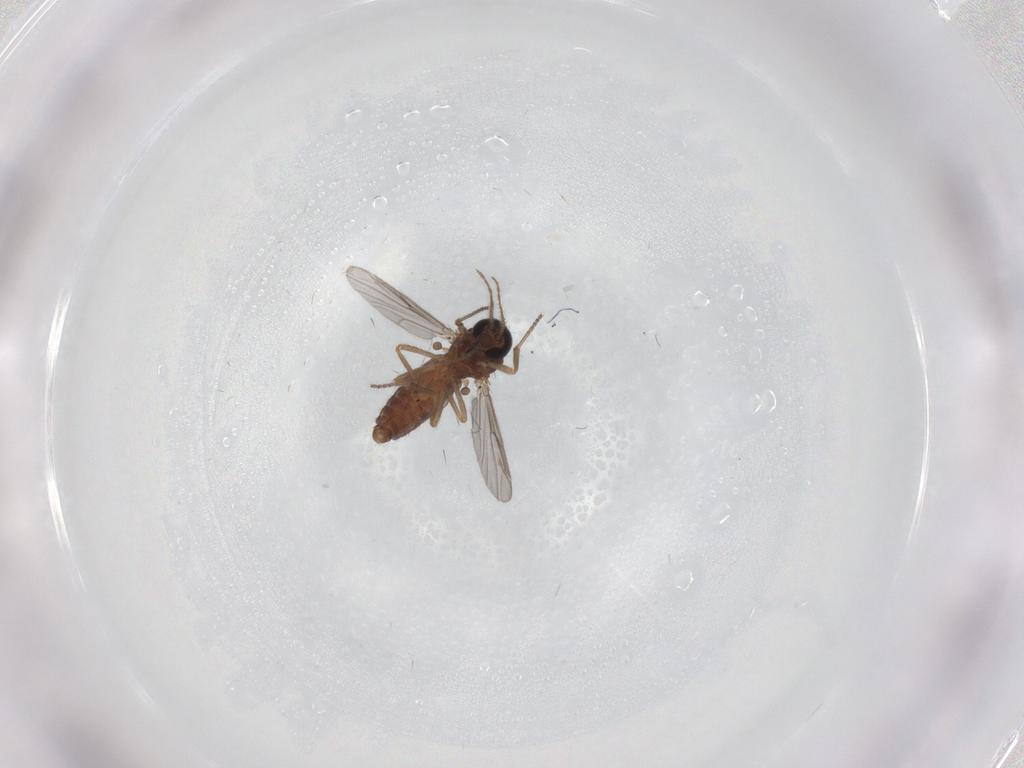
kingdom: Animalia
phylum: Arthropoda
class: Insecta
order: Diptera
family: Ceratopogonidae
